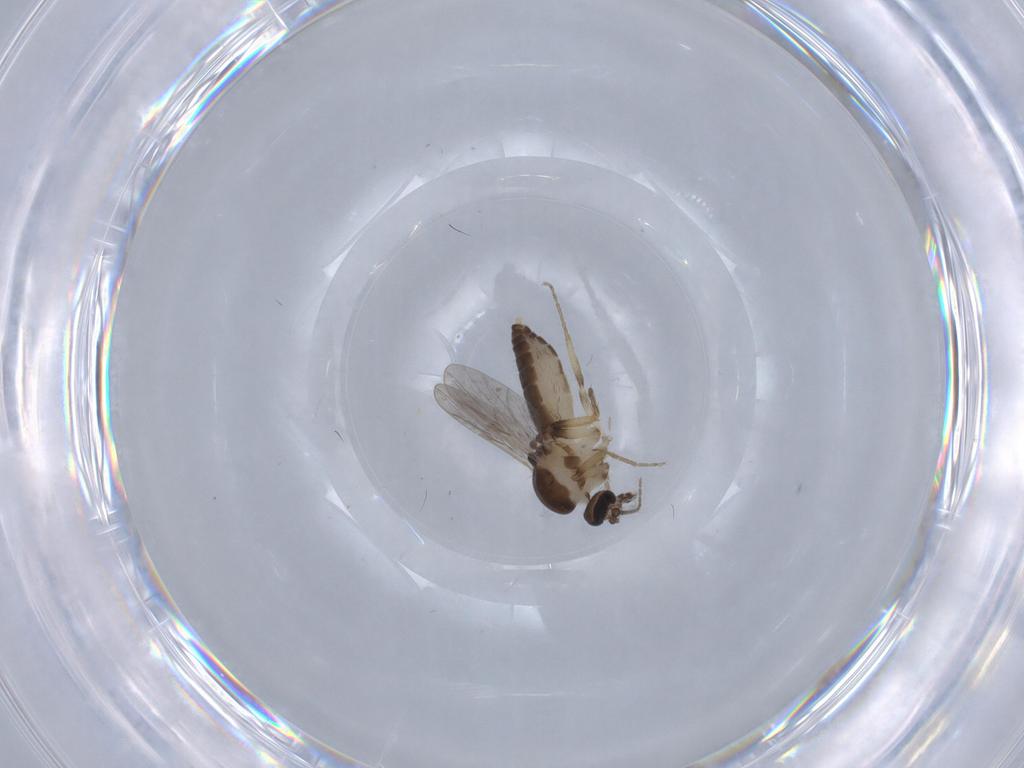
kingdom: Animalia
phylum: Arthropoda
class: Insecta
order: Diptera
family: Ceratopogonidae
